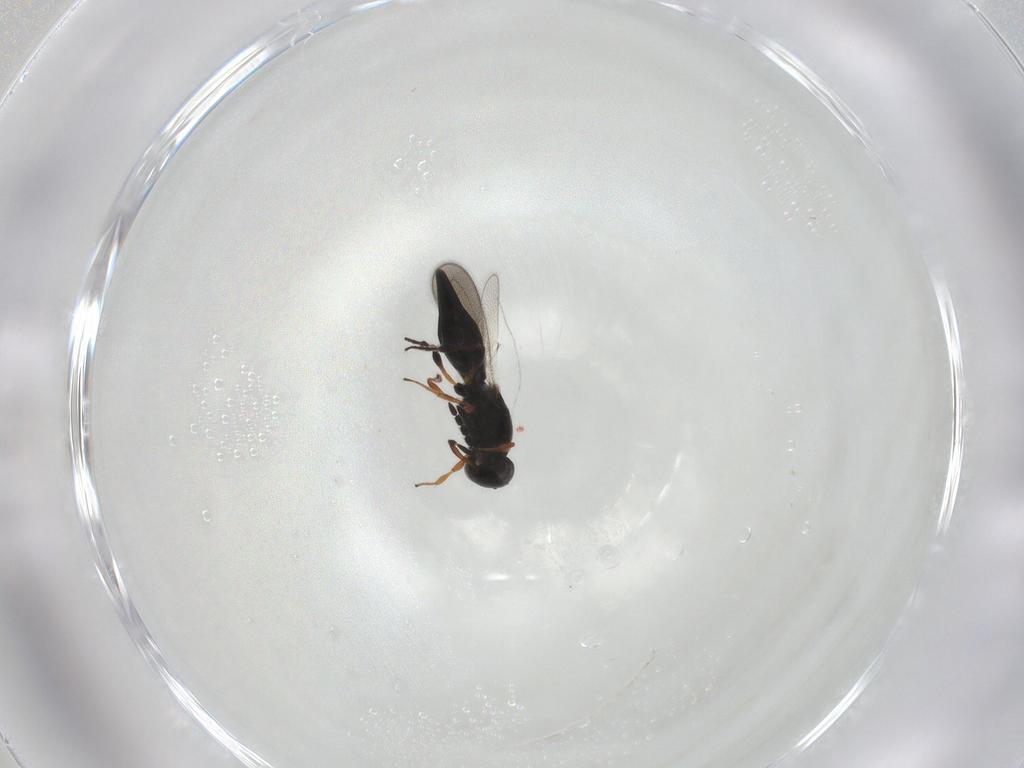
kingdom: Animalia
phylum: Arthropoda
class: Insecta
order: Hymenoptera
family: Platygastridae
